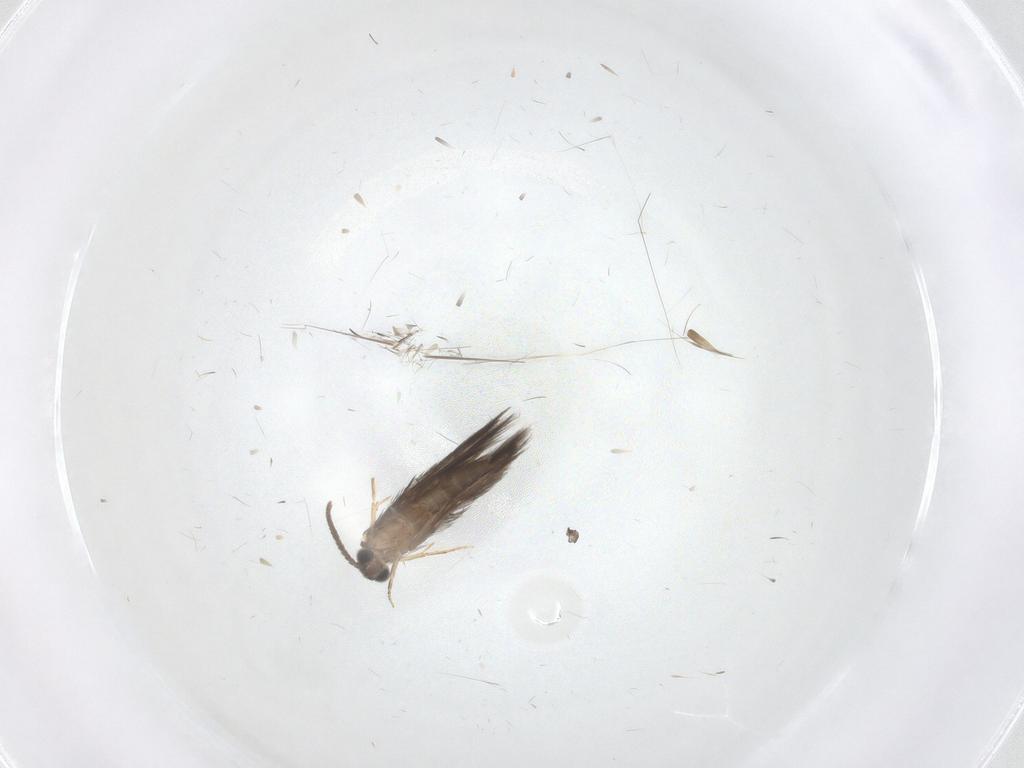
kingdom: Animalia
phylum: Arthropoda
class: Insecta
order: Trichoptera
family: Hydroptilidae
